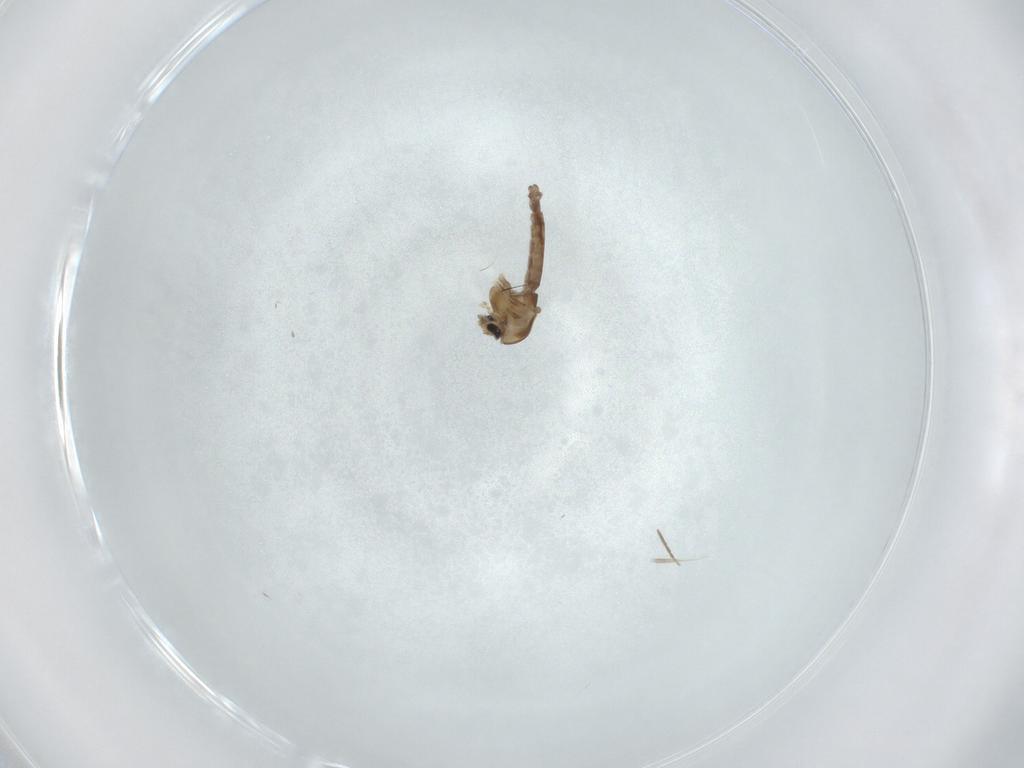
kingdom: Animalia
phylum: Arthropoda
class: Insecta
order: Diptera
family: Chironomidae
